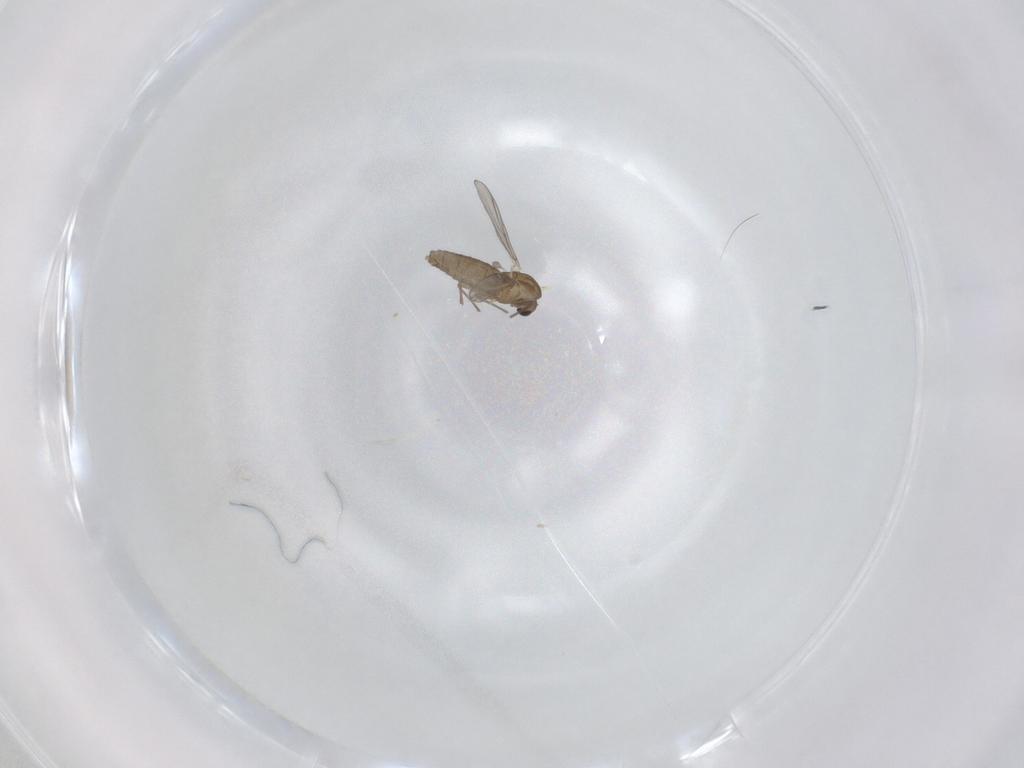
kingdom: Animalia
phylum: Arthropoda
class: Insecta
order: Diptera
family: Chironomidae
